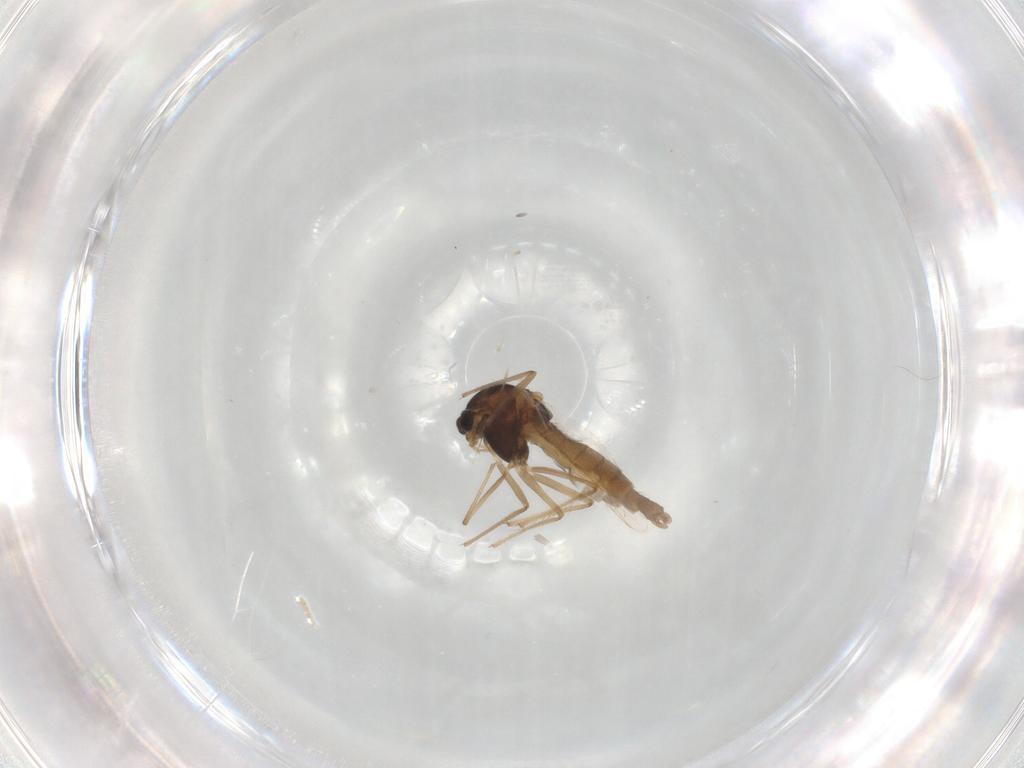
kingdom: Animalia
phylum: Arthropoda
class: Insecta
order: Diptera
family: Chironomidae
